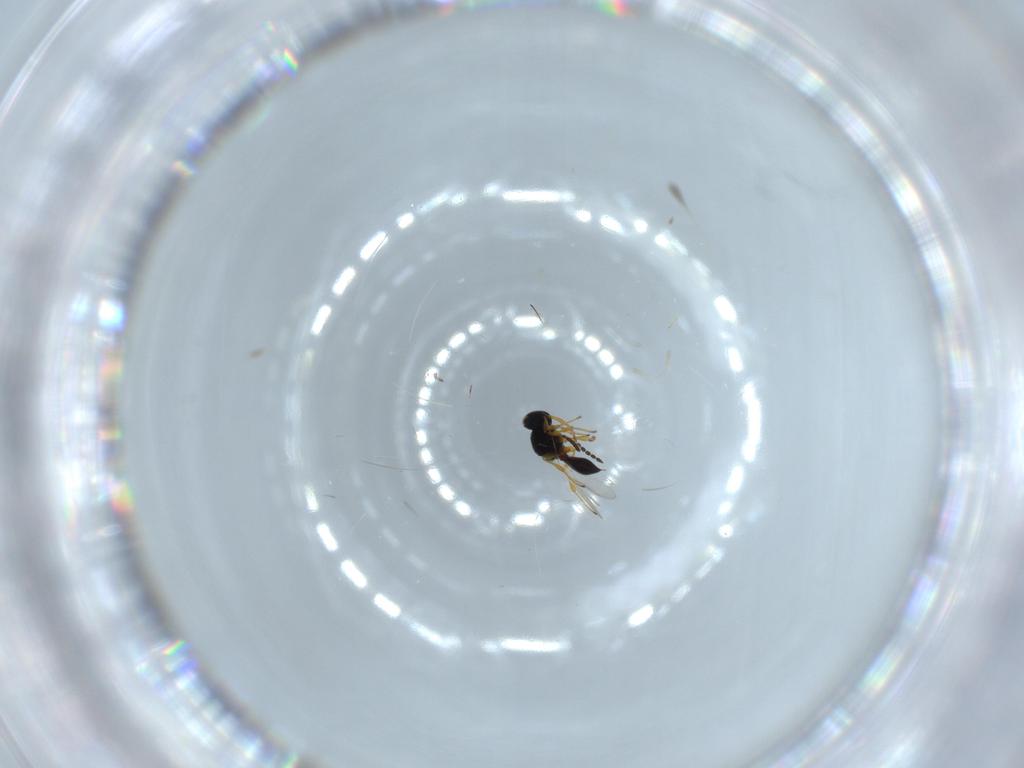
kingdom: Animalia
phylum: Arthropoda
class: Insecta
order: Hymenoptera
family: Platygastridae
